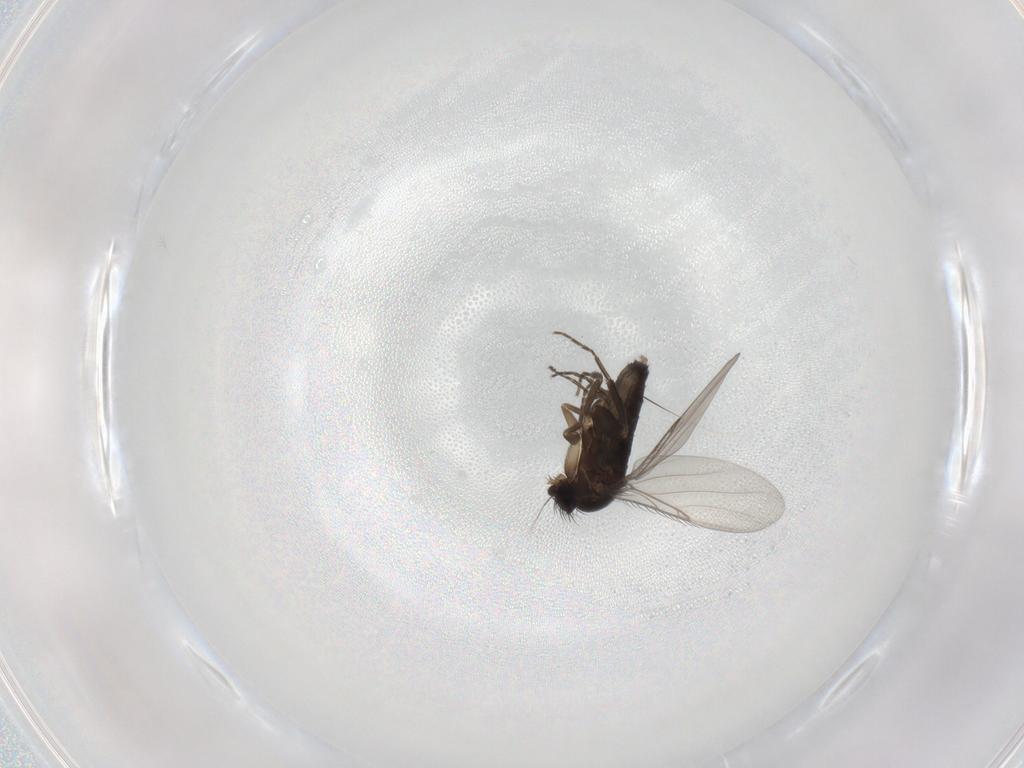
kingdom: Animalia
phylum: Arthropoda
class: Insecta
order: Diptera
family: Phoridae
